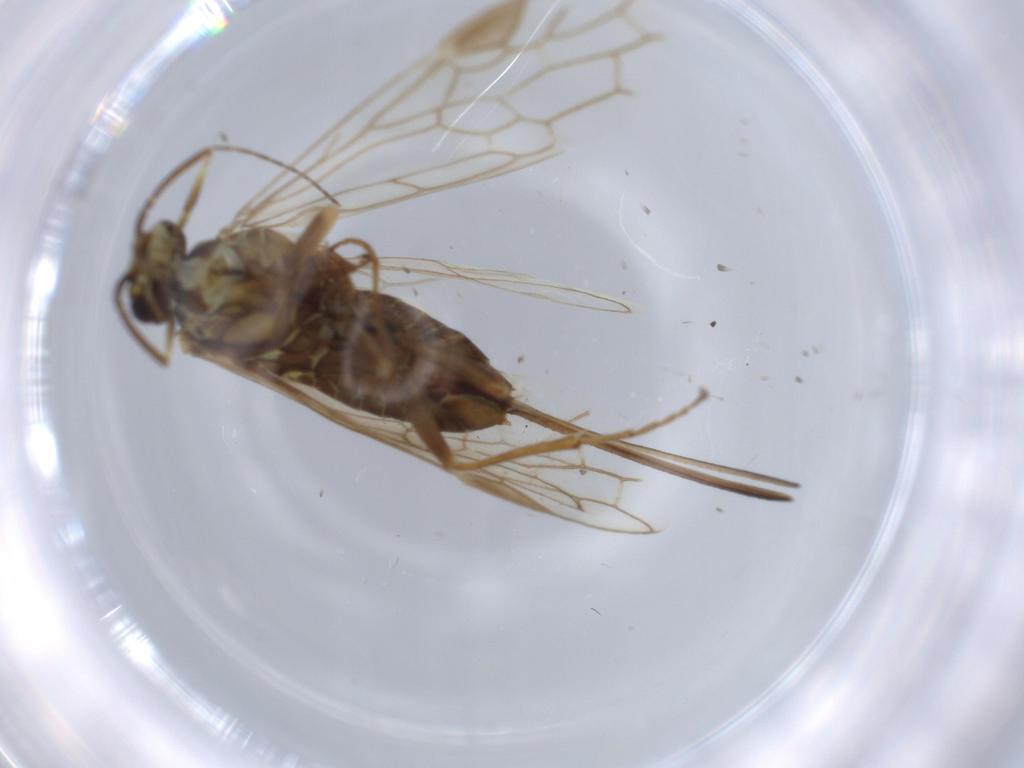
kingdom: Animalia
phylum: Arthropoda
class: Insecta
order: Hymenoptera
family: Xyelidae
